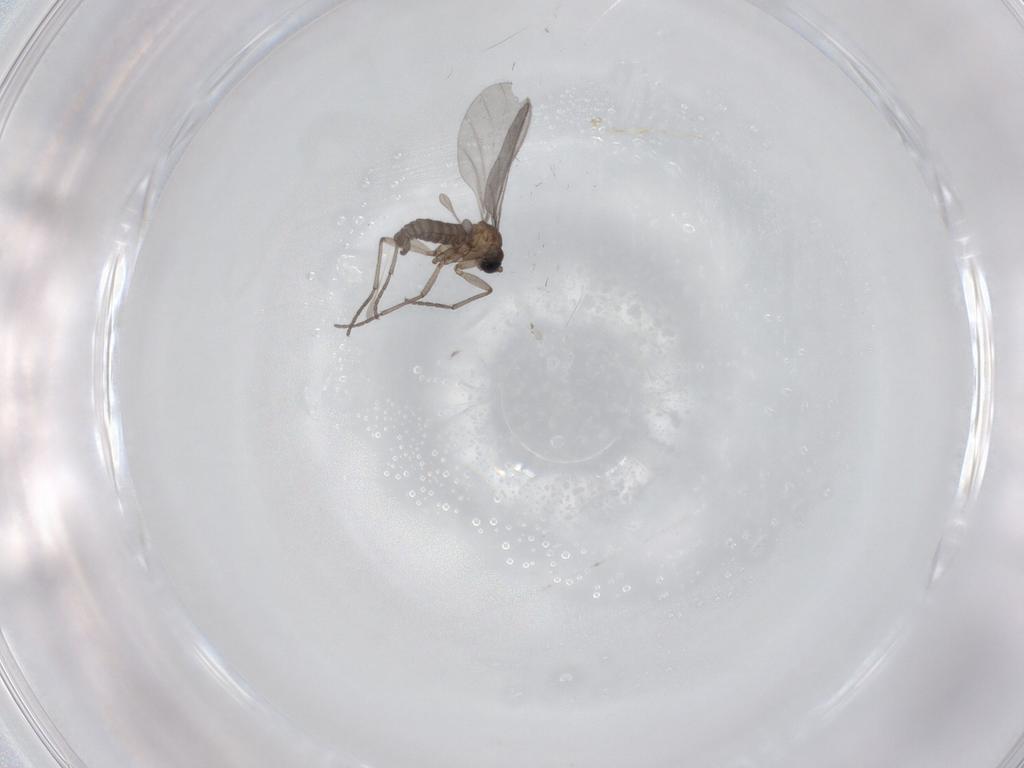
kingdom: Animalia
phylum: Arthropoda
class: Insecta
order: Diptera
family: Sciaridae
